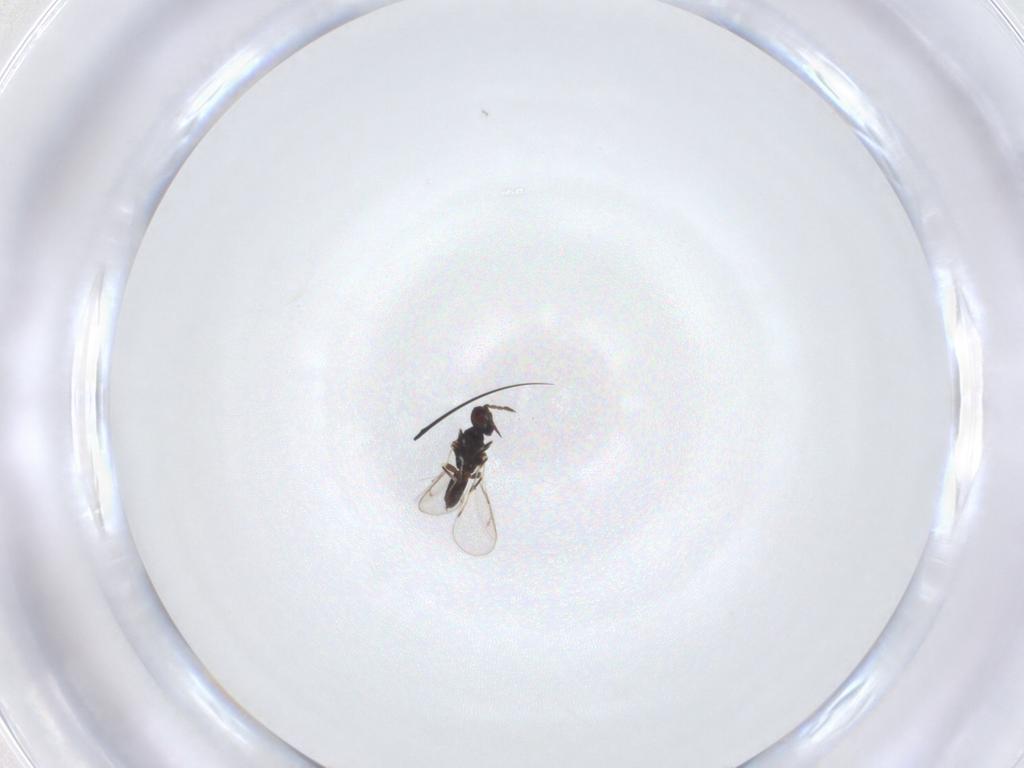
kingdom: Animalia
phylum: Arthropoda
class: Insecta
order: Hymenoptera
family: Eulophidae
